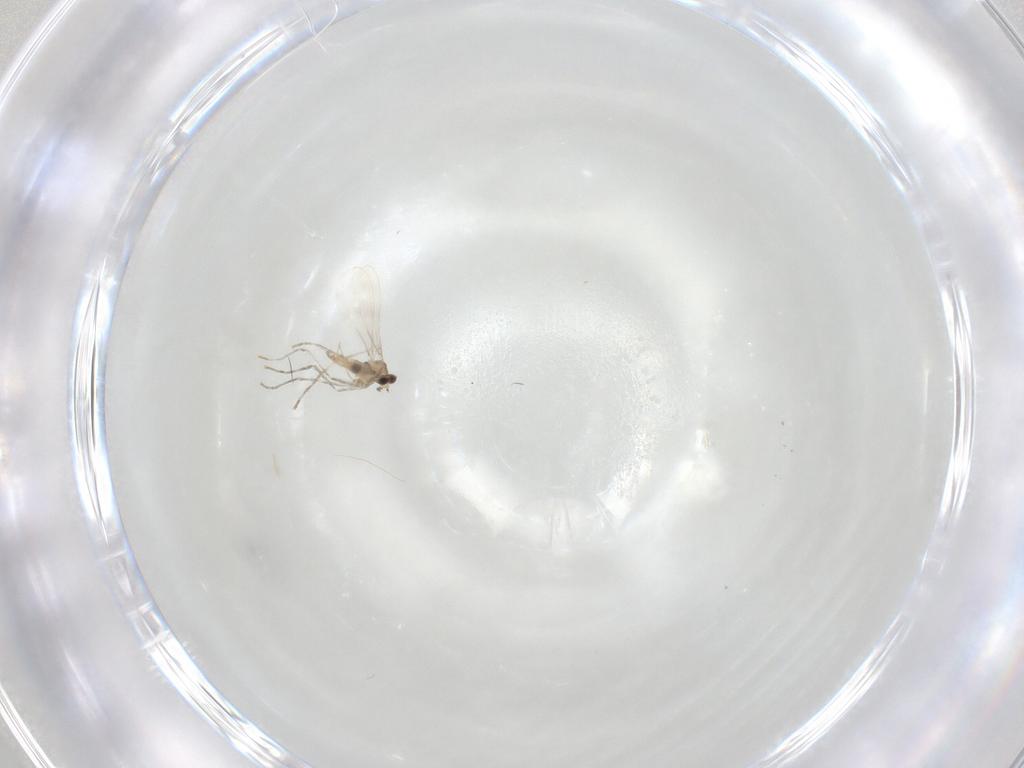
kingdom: Animalia
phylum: Arthropoda
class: Insecta
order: Diptera
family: Cecidomyiidae
